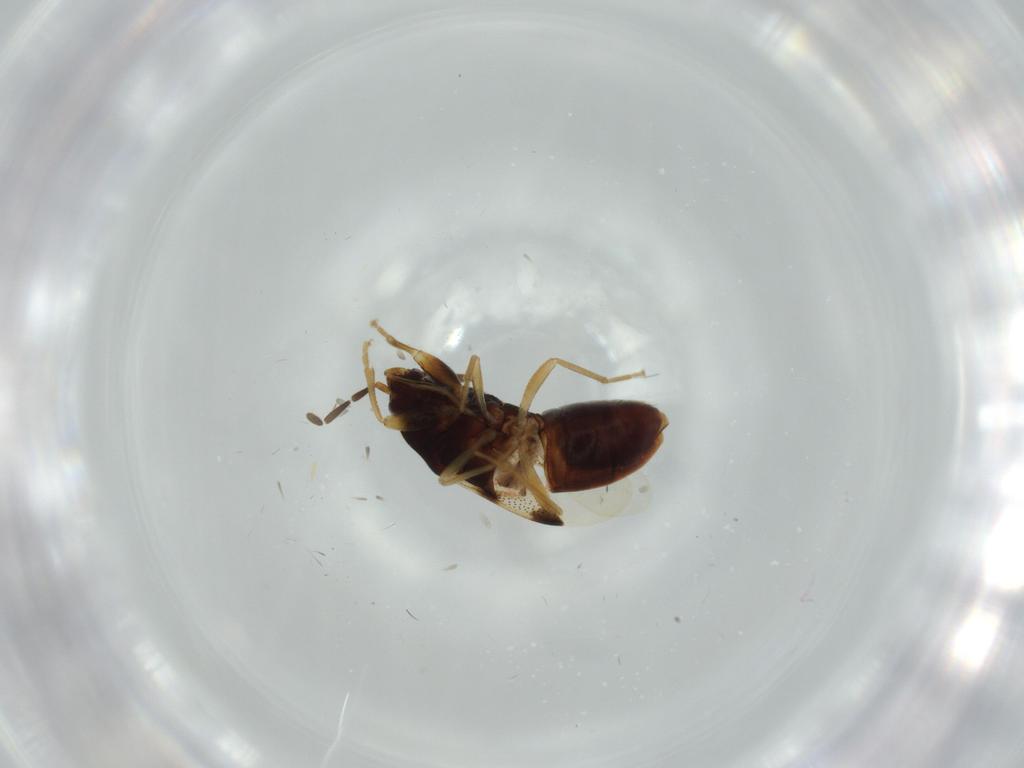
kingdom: Animalia
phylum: Arthropoda
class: Insecta
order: Hemiptera
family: Rhyparochromidae
